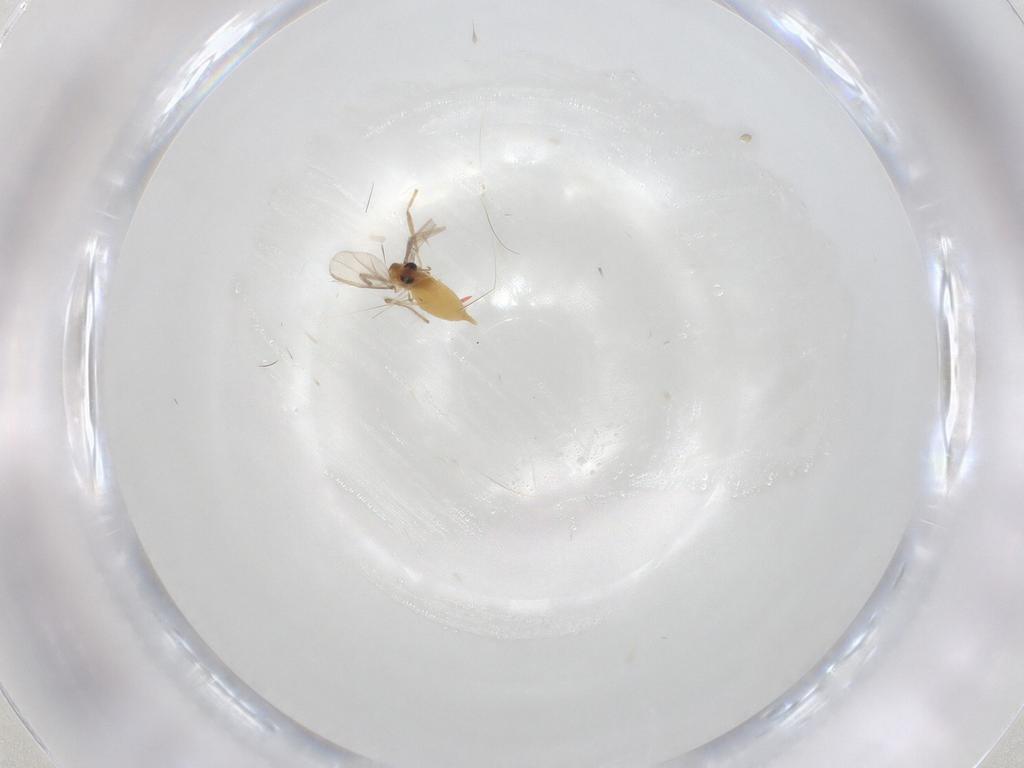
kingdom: Animalia
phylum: Arthropoda
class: Insecta
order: Diptera
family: Chironomidae
